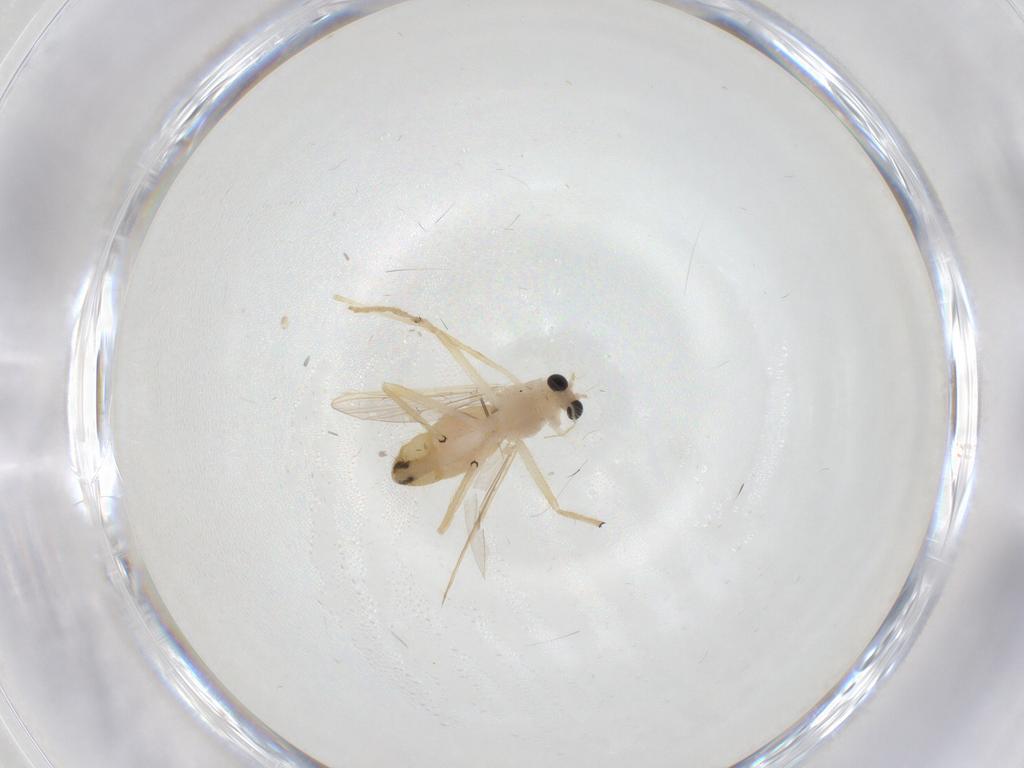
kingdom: Animalia
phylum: Arthropoda
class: Insecta
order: Diptera
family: Chironomidae
